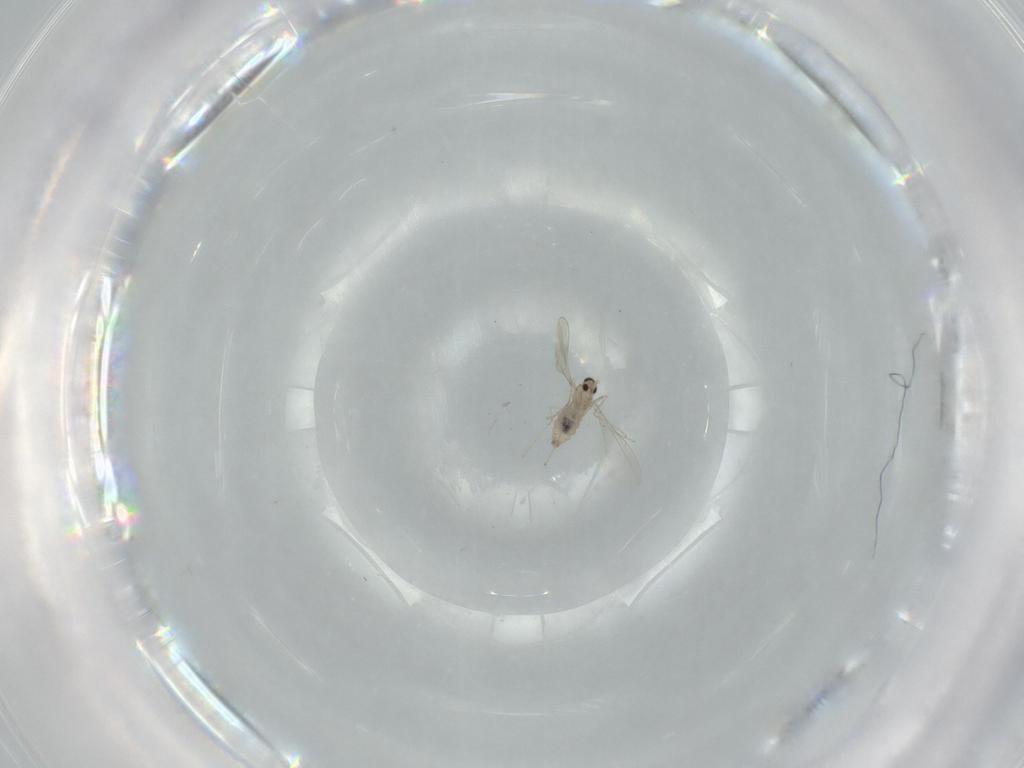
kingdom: Animalia
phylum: Arthropoda
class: Insecta
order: Diptera
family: Cecidomyiidae
